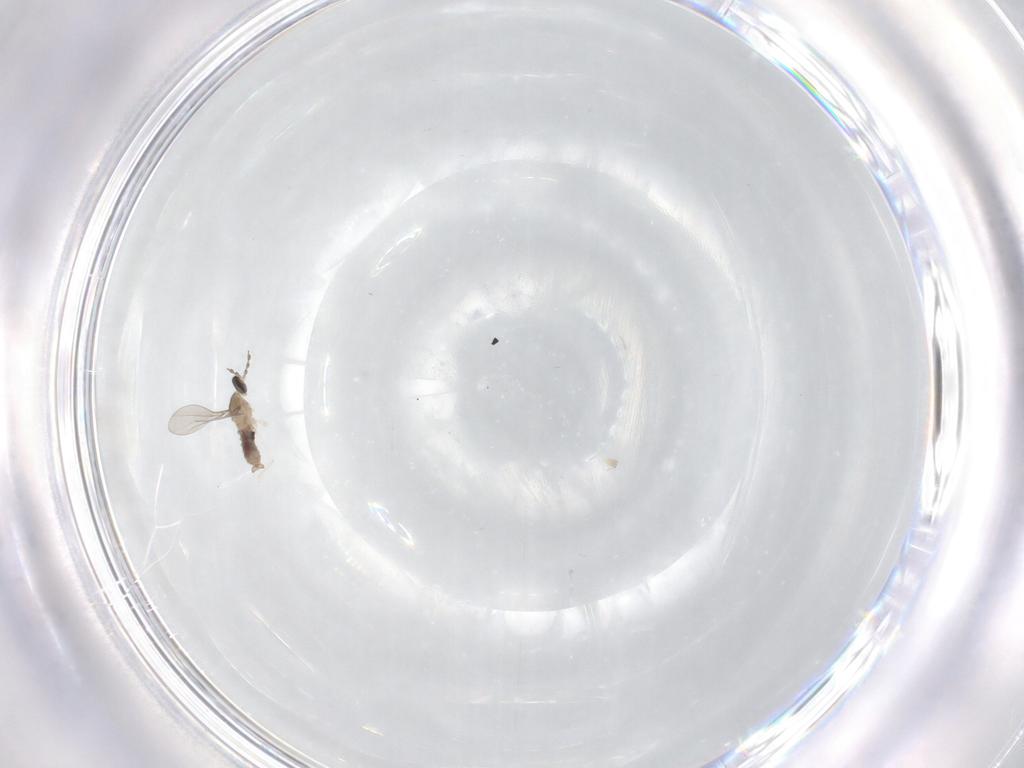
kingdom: Animalia
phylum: Arthropoda
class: Insecta
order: Diptera
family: Cecidomyiidae
